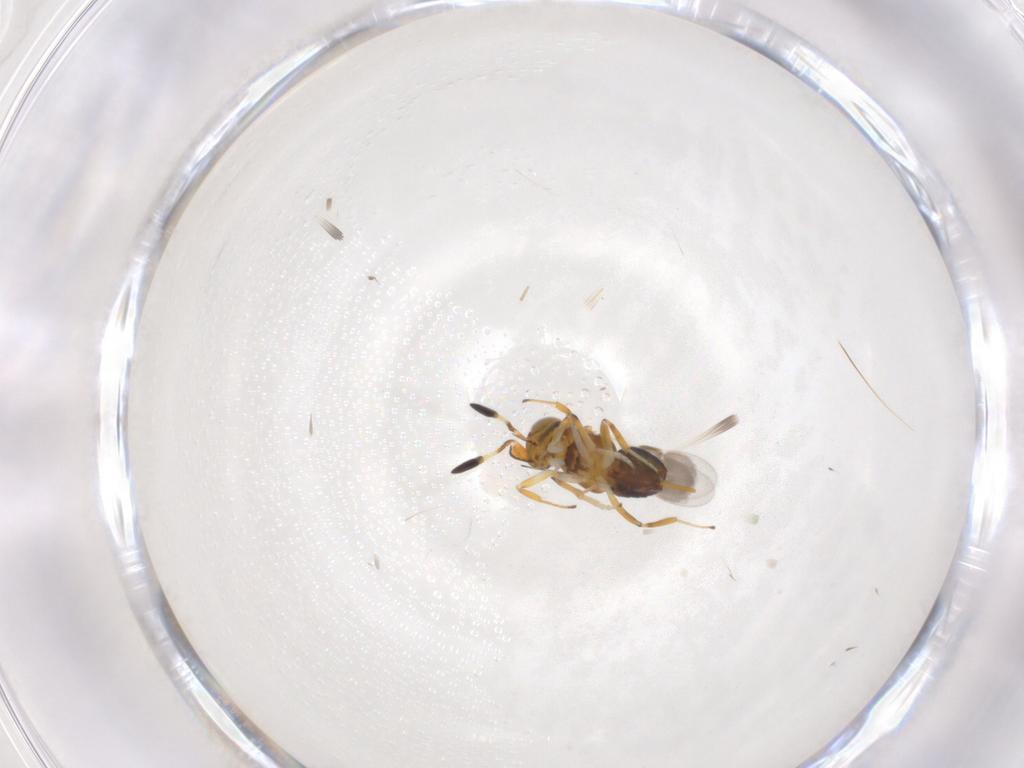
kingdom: Animalia
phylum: Arthropoda
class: Insecta
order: Hymenoptera
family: Encyrtidae
